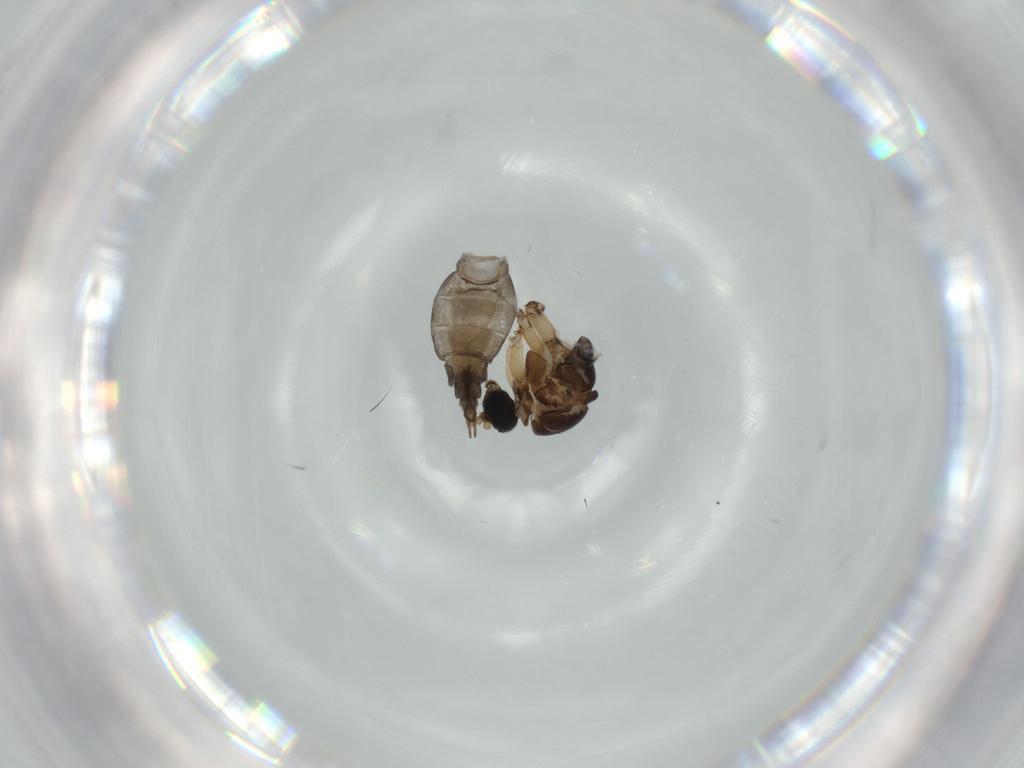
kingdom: Animalia
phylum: Arthropoda
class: Insecta
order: Diptera
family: Sciaridae
